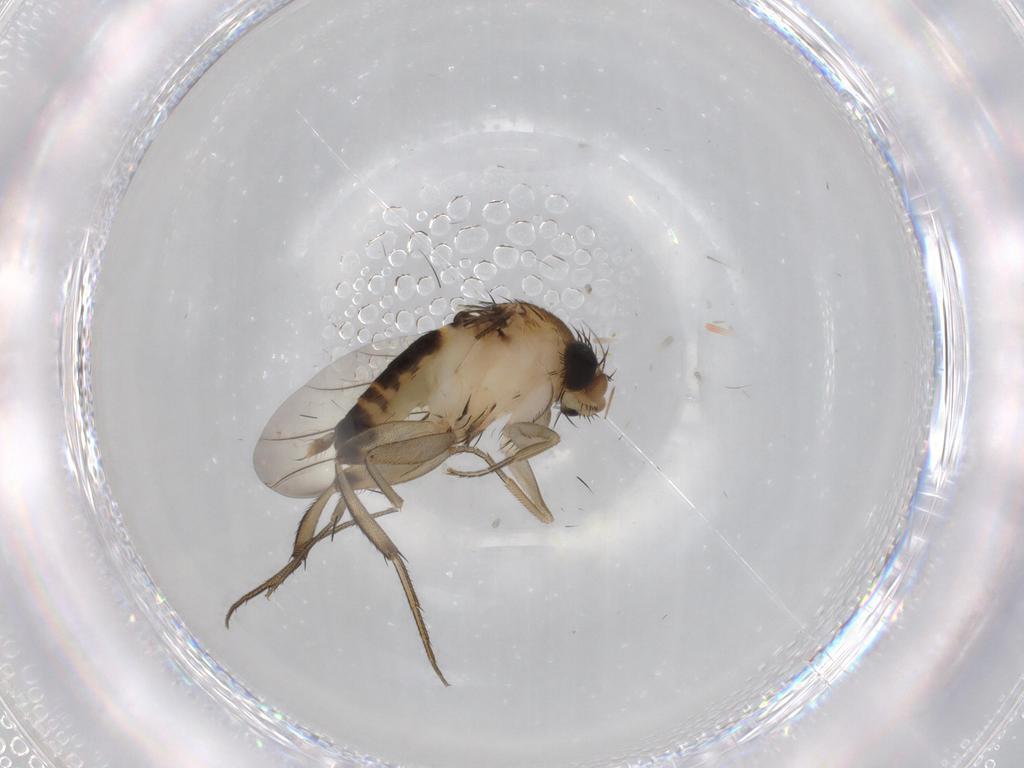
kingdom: Animalia
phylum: Arthropoda
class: Insecta
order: Diptera
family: Phoridae
